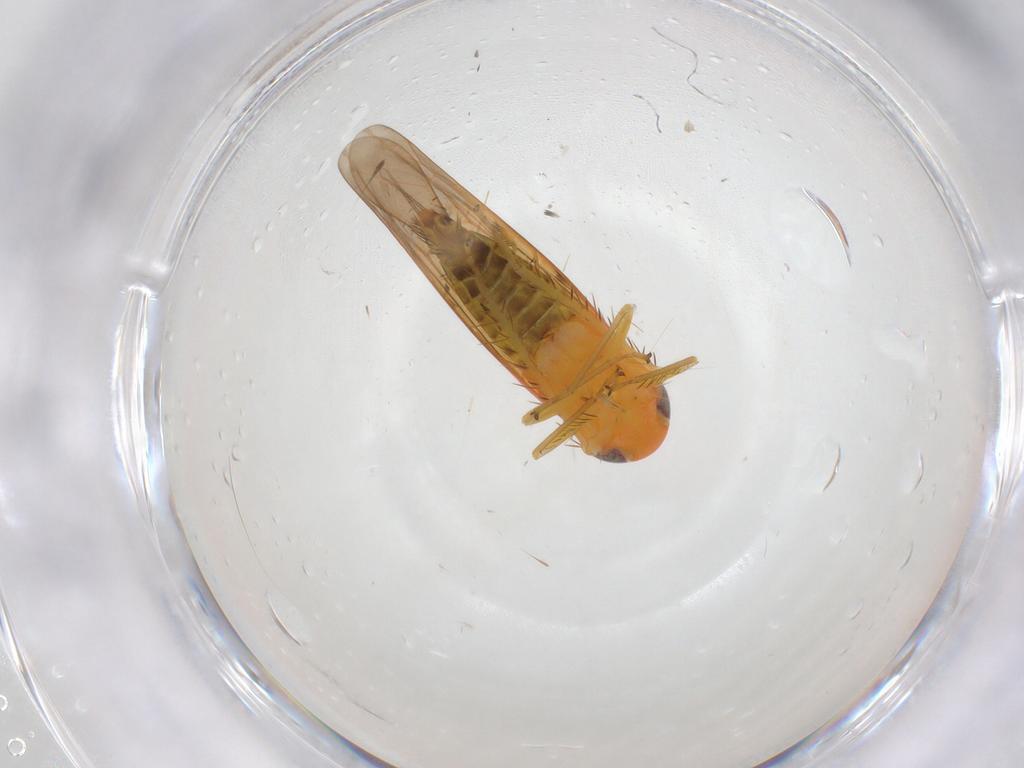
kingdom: Animalia
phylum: Arthropoda
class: Insecta
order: Hemiptera
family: Cicadellidae
